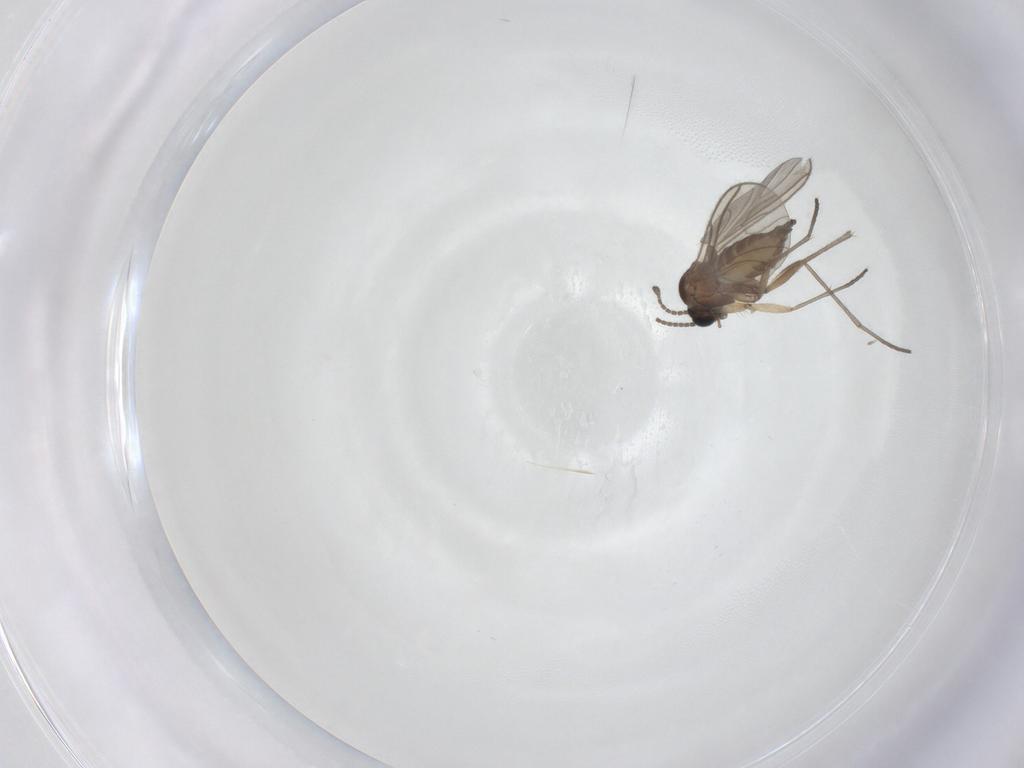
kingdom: Animalia
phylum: Arthropoda
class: Insecta
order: Diptera
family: Sciaridae
